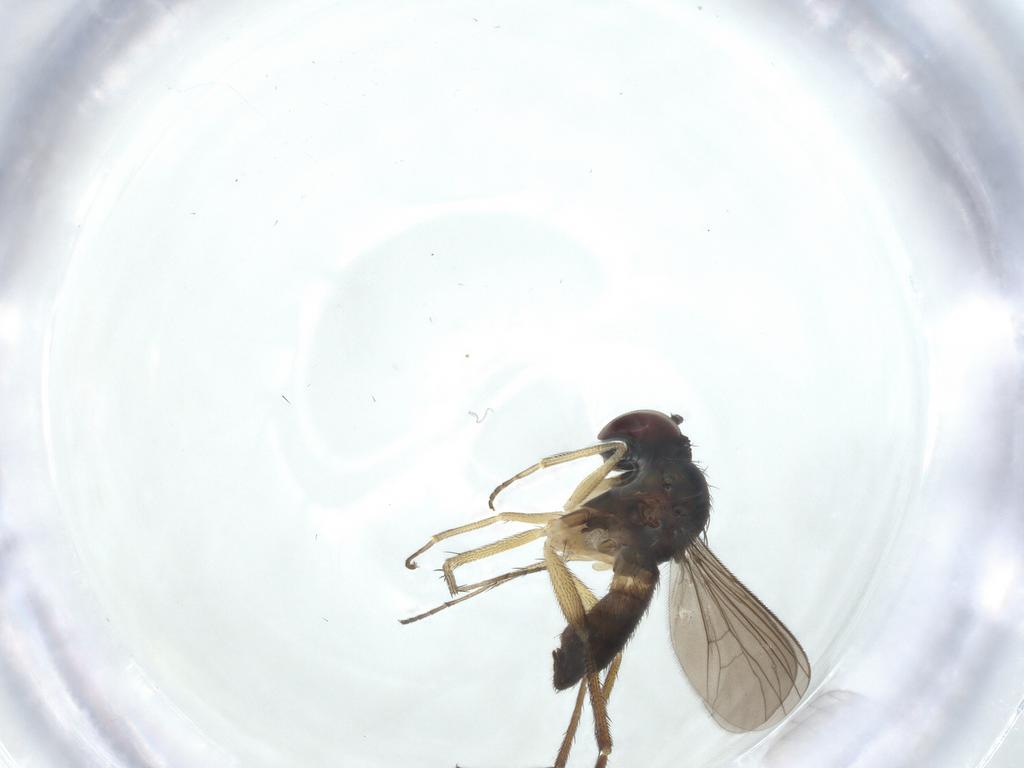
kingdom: Animalia
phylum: Arthropoda
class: Insecta
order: Diptera
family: Dolichopodidae
